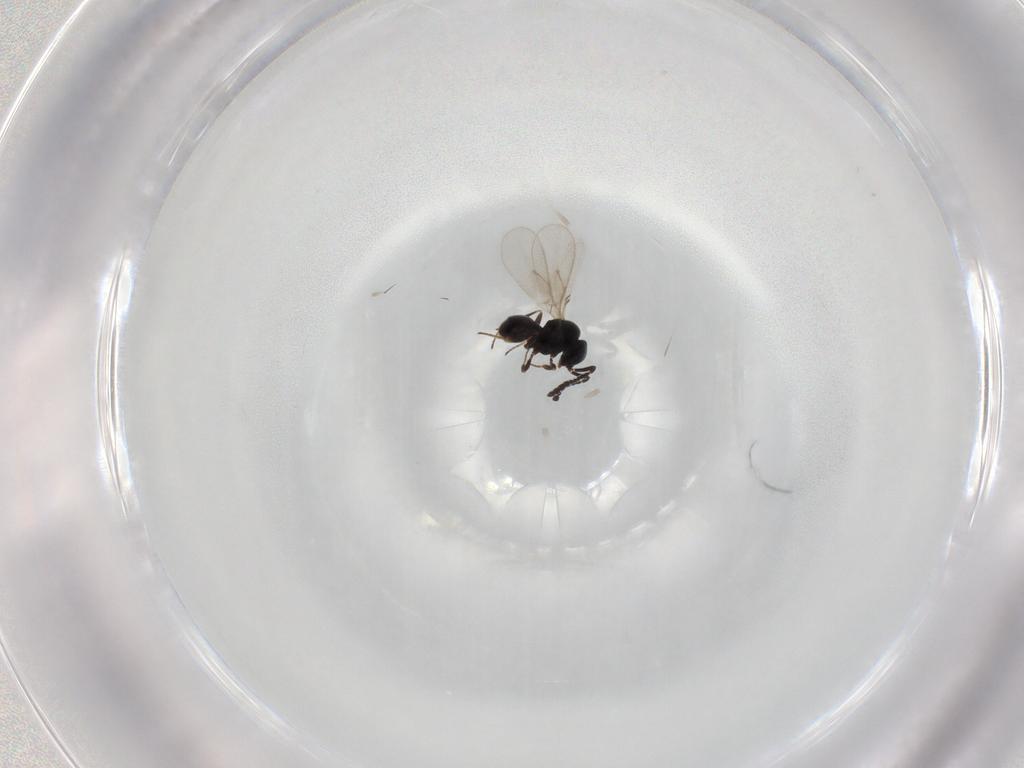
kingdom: Animalia
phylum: Arthropoda
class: Insecta
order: Hymenoptera
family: Scelionidae
